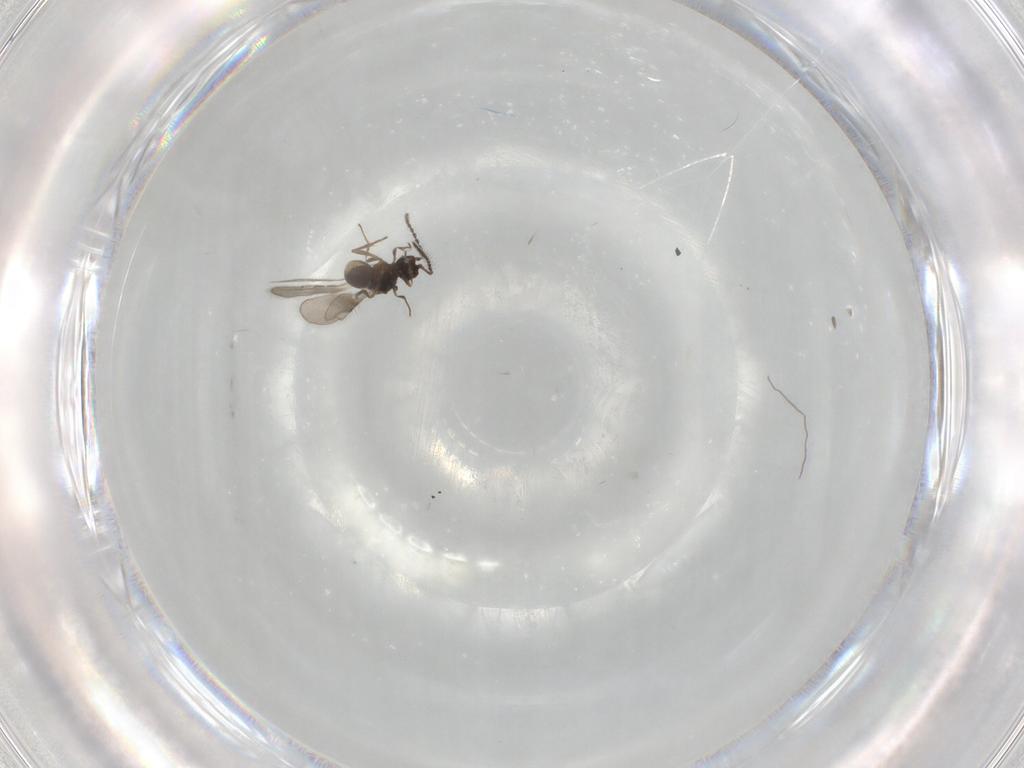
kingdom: Animalia
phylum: Arthropoda
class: Insecta
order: Hymenoptera
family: Ceraphronidae
